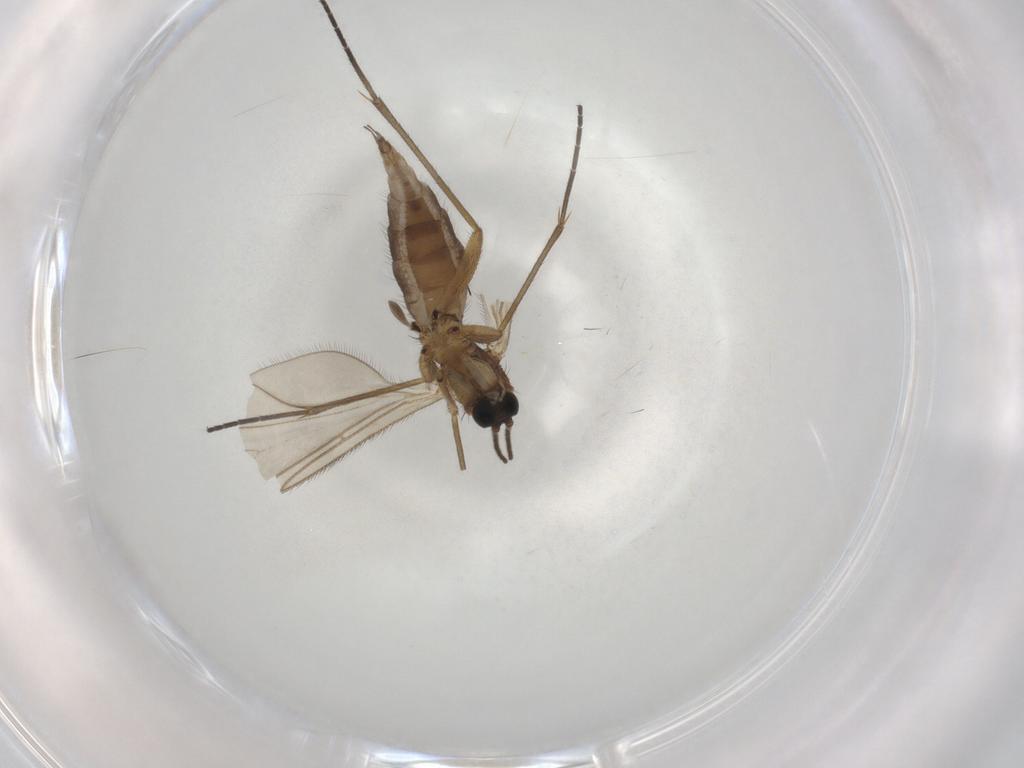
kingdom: Animalia
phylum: Arthropoda
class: Insecta
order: Diptera
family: Sciaridae
